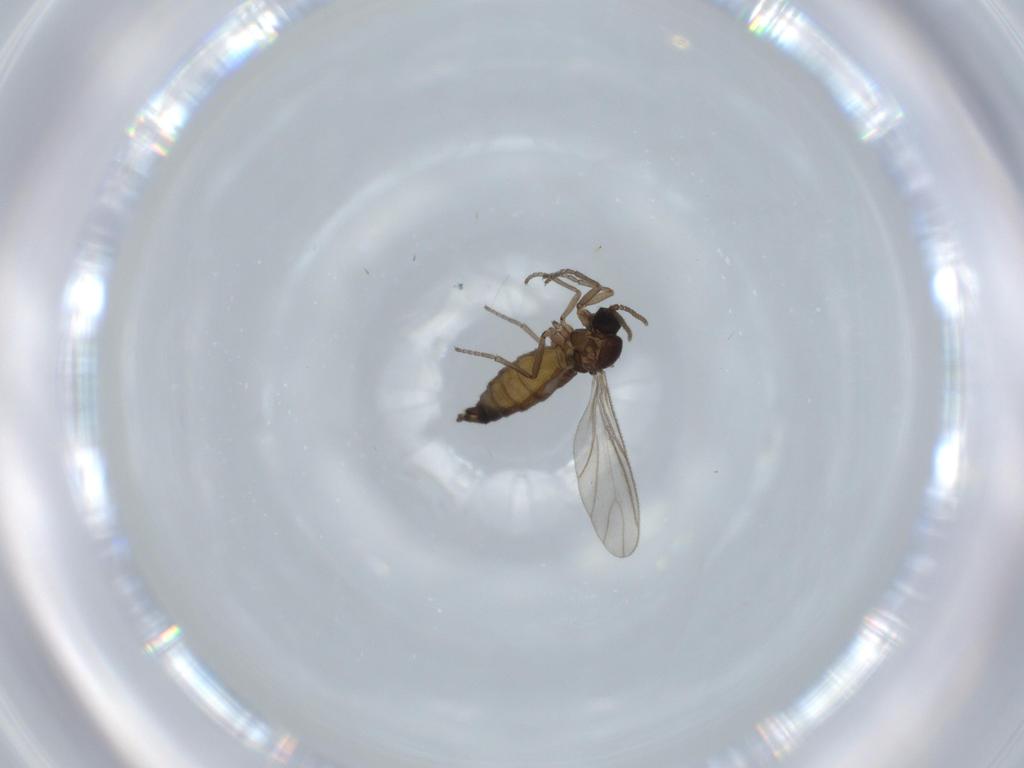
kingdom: Animalia
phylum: Arthropoda
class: Insecta
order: Diptera
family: Sciaridae
